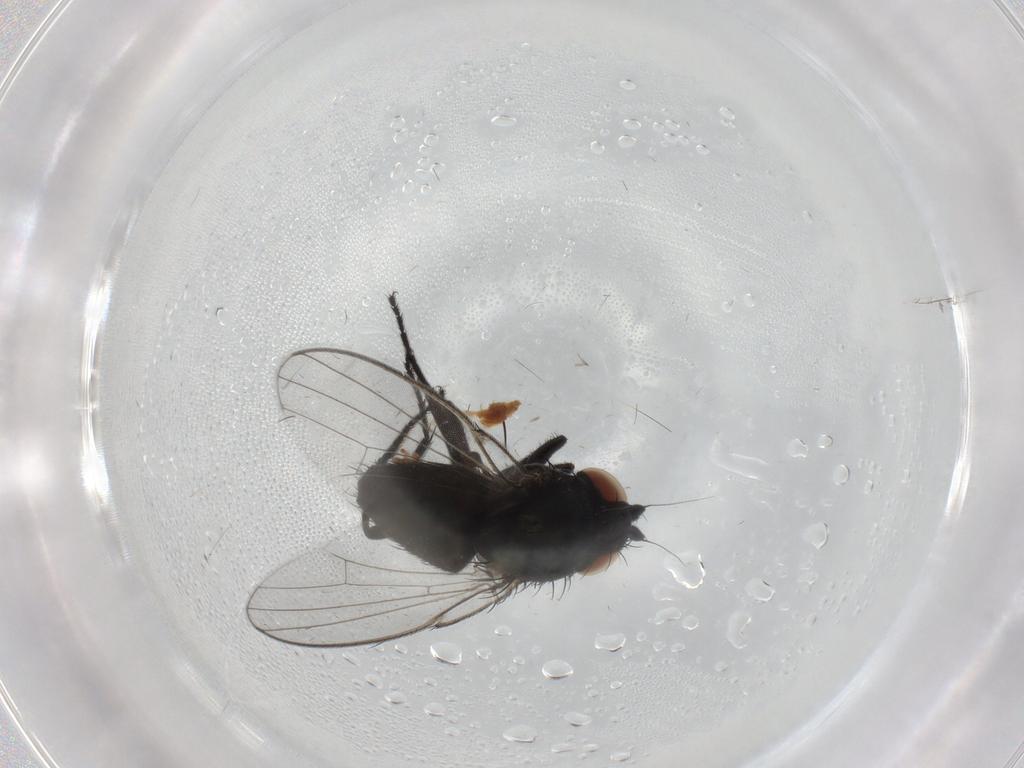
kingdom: Animalia
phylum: Arthropoda
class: Insecta
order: Diptera
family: Milichiidae
